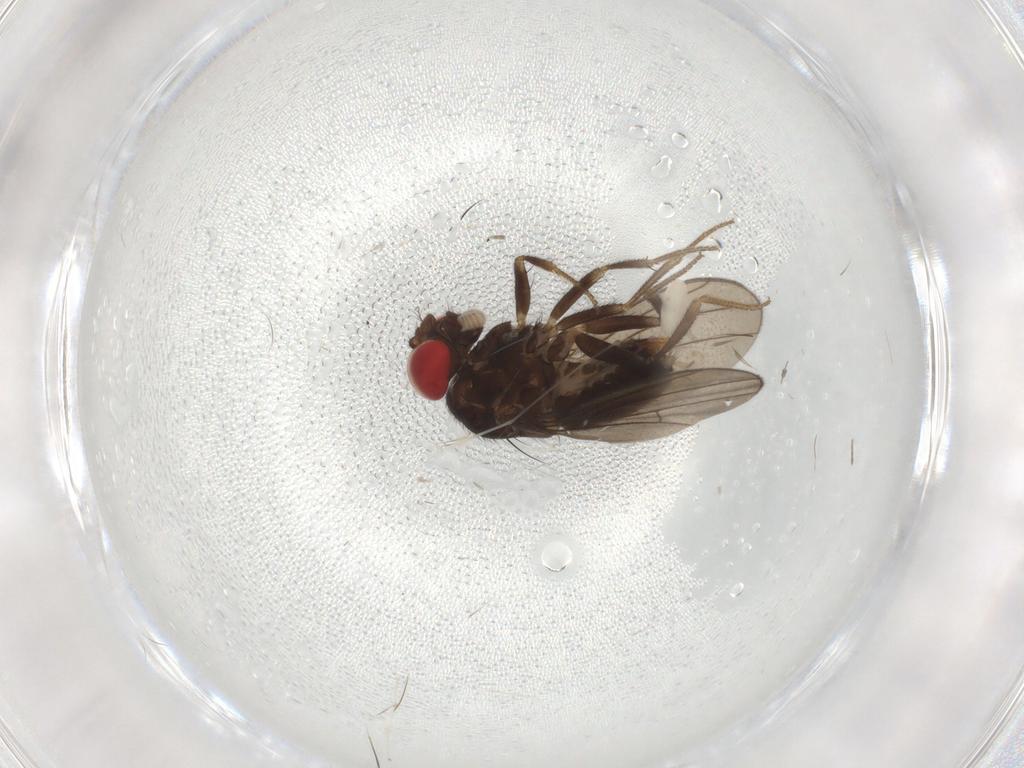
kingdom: Animalia
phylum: Arthropoda
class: Insecta
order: Diptera
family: Drosophilidae
